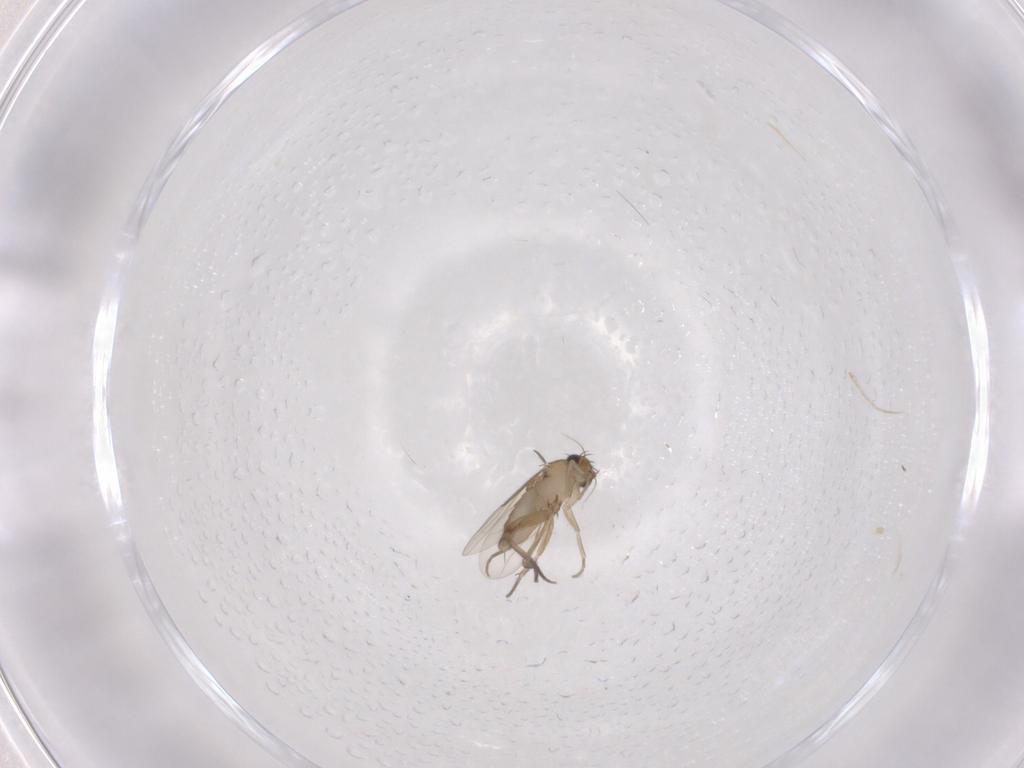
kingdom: Animalia
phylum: Arthropoda
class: Insecta
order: Diptera
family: Phoridae
